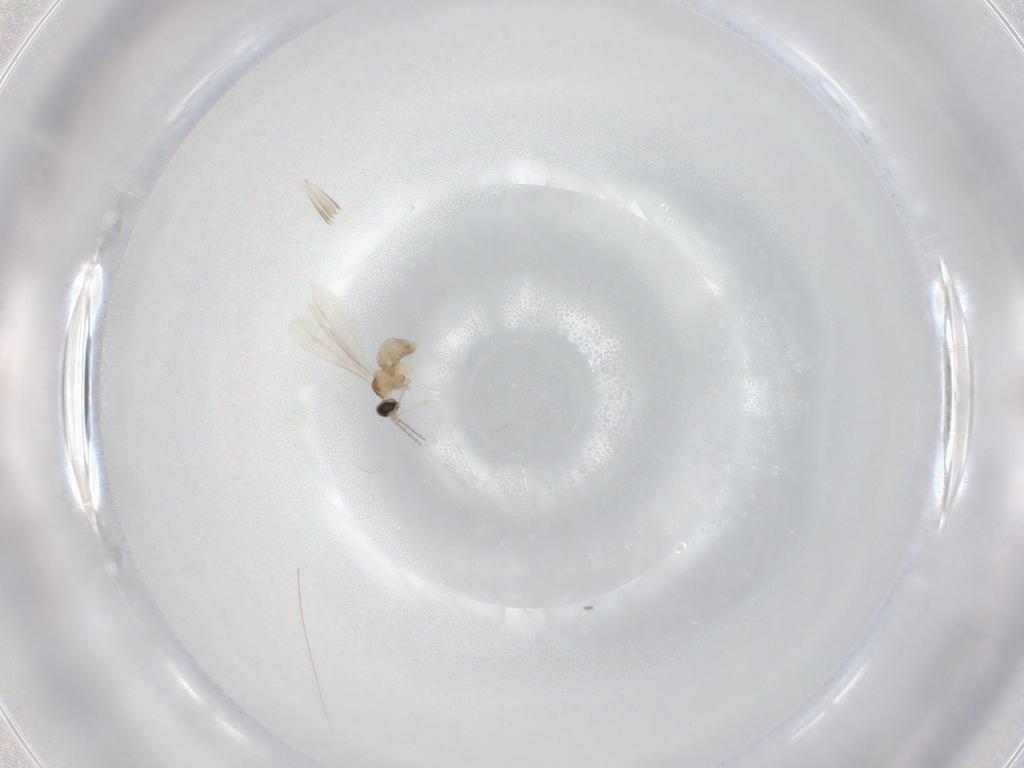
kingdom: Animalia
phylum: Arthropoda
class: Insecta
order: Diptera
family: Cecidomyiidae
